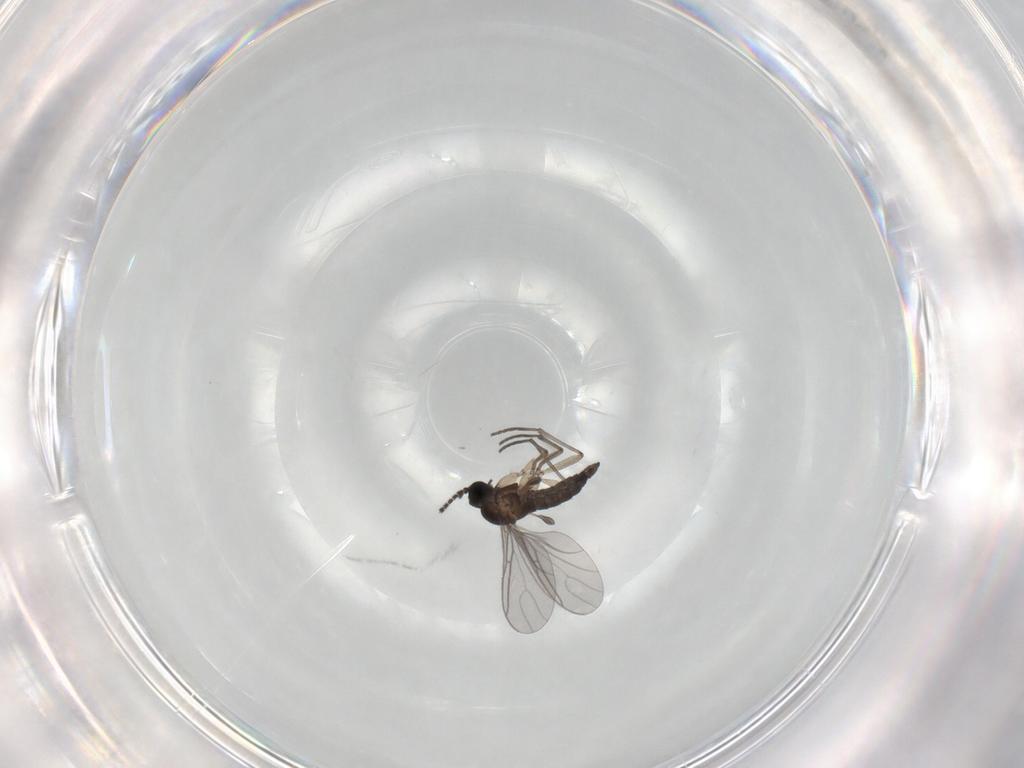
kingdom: Animalia
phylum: Arthropoda
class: Insecta
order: Diptera
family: Sciaridae
